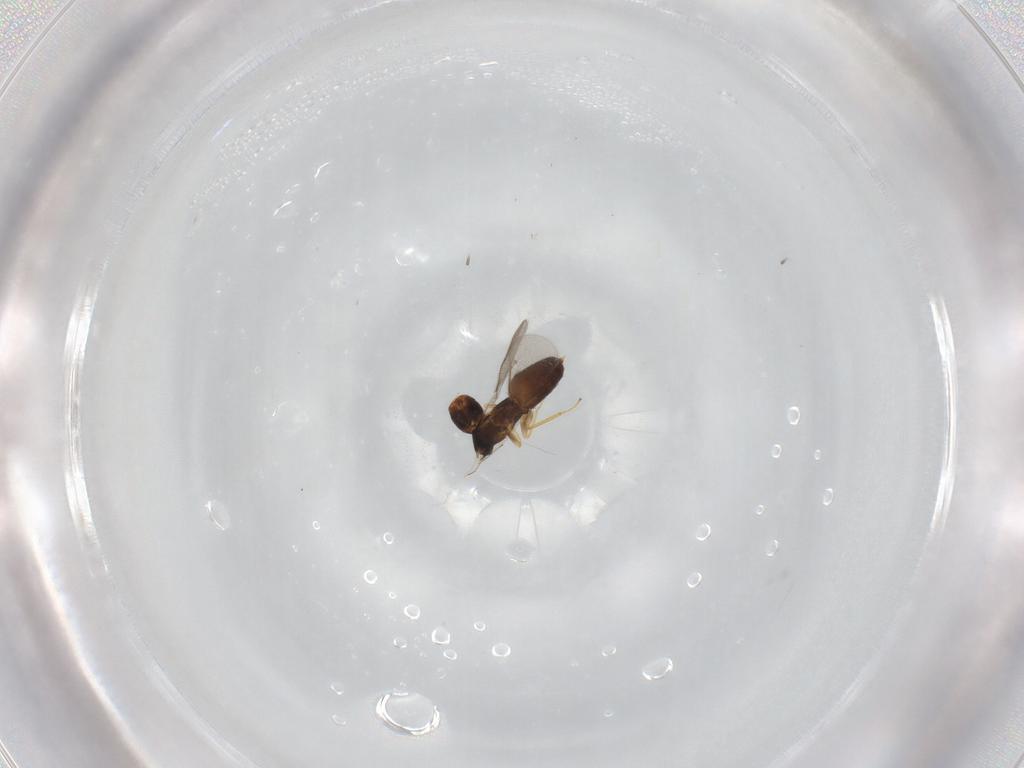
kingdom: Animalia
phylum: Arthropoda
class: Insecta
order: Hymenoptera
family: Eulophidae
